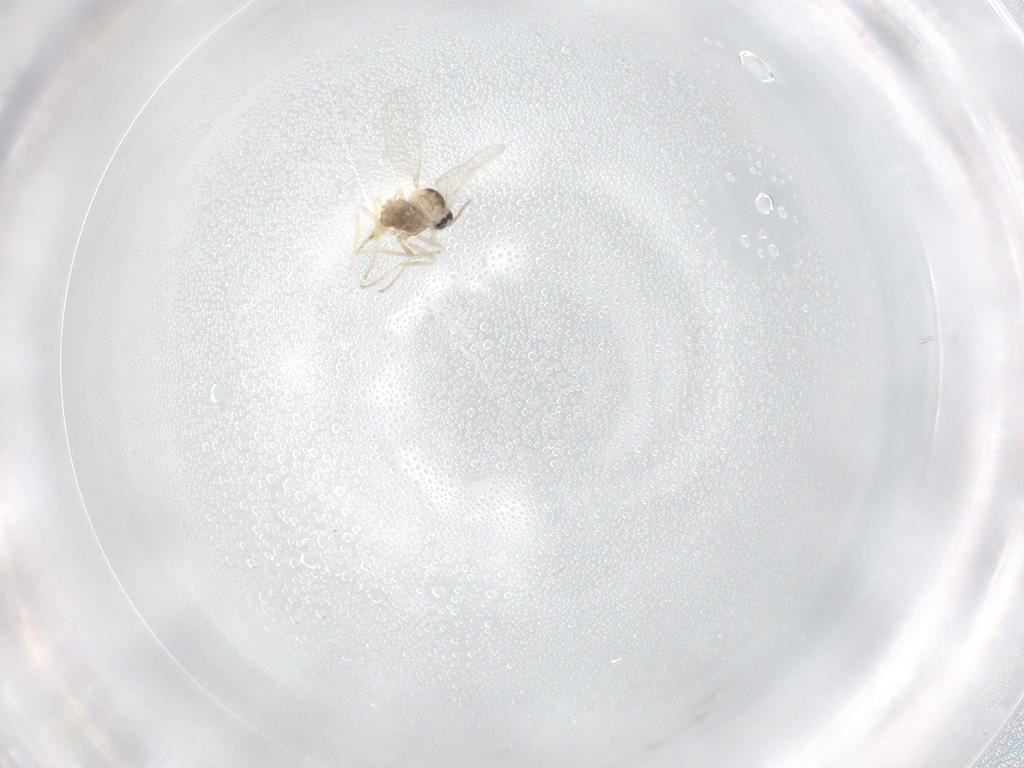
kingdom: Animalia
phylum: Arthropoda
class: Insecta
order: Diptera
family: Cecidomyiidae
